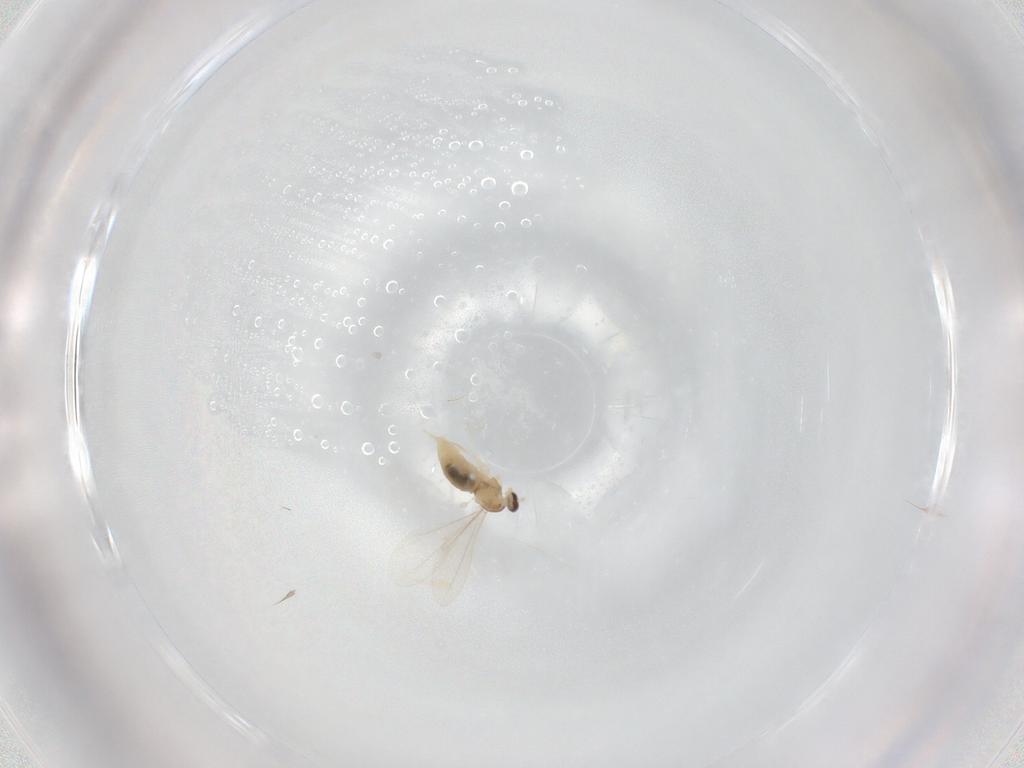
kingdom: Animalia
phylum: Arthropoda
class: Insecta
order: Diptera
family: Cecidomyiidae
